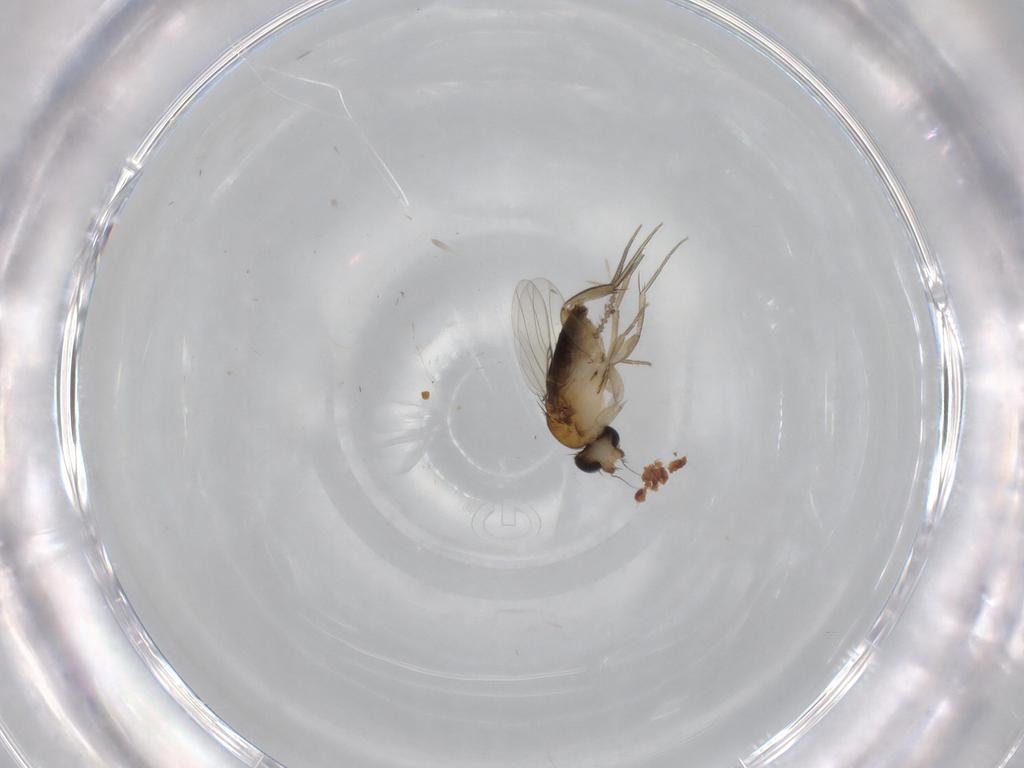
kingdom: Animalia
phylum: Arthropoda
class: Insecta
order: Diptera
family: Phoridae
